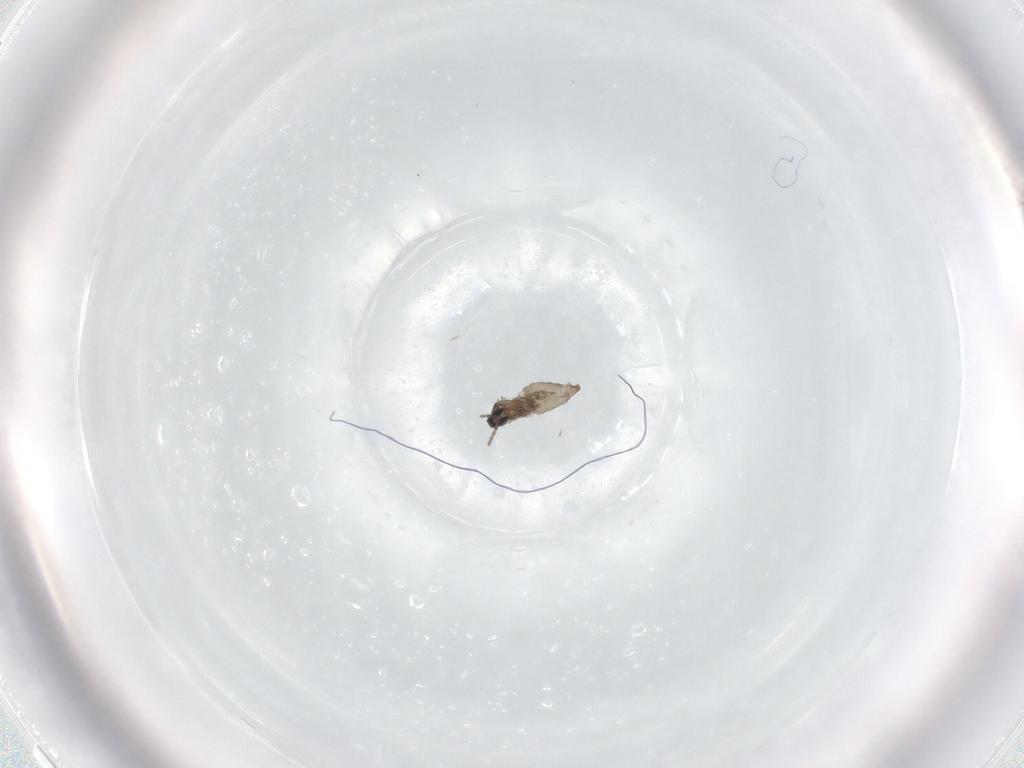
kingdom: Animalia
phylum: Arthropoda
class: Insecta
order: Diptera
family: Cecidomyiidae
